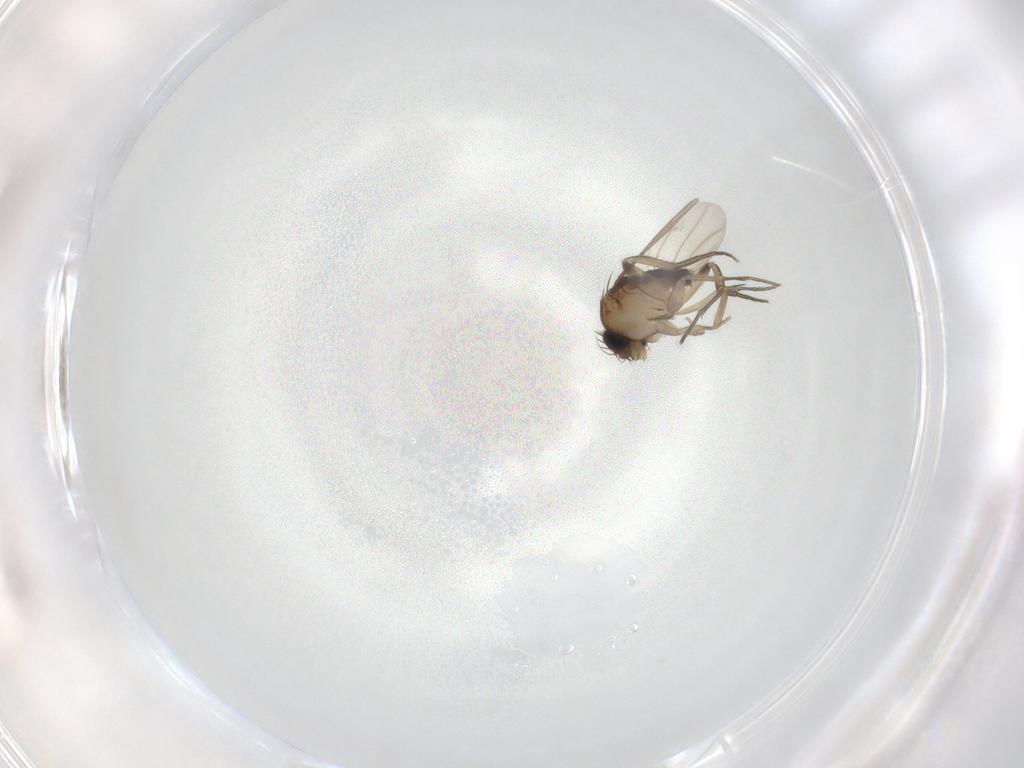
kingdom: Animalia
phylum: Arthropoda
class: Insecta
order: Diptera
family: Phoridae
